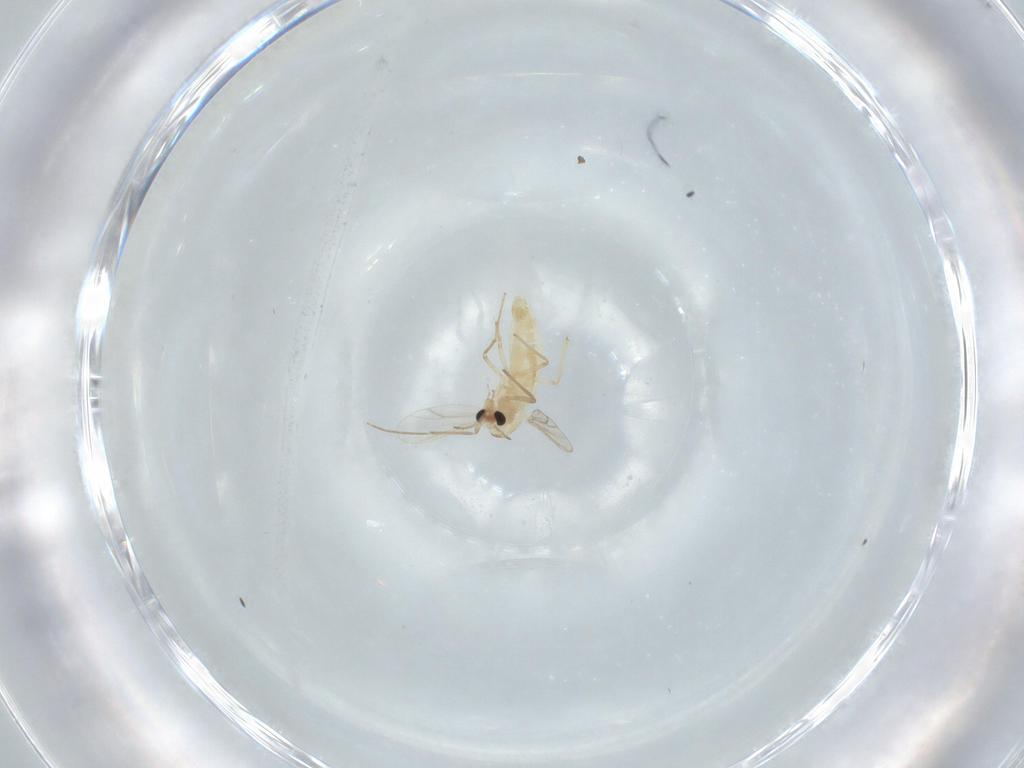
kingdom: Animalia
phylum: Arthropoda
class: Insecta
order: Diptera
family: Chironomidae
